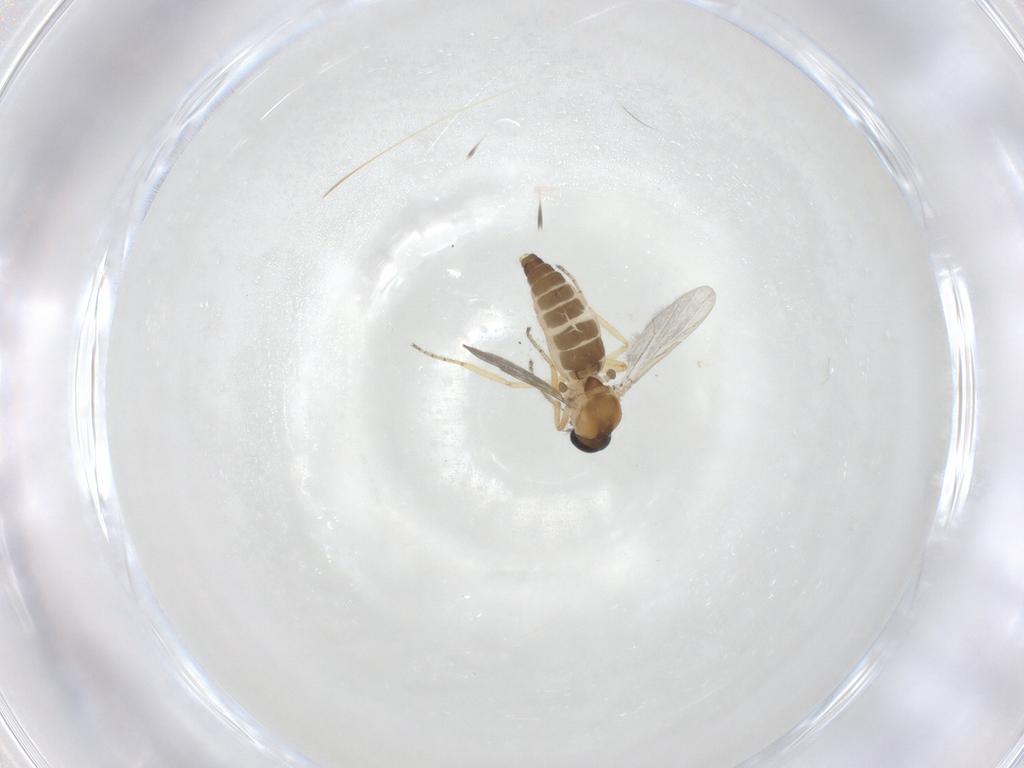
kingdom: Animalia
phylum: Arthropoda
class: Insecta
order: Diptera
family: Ceratopogonidae
